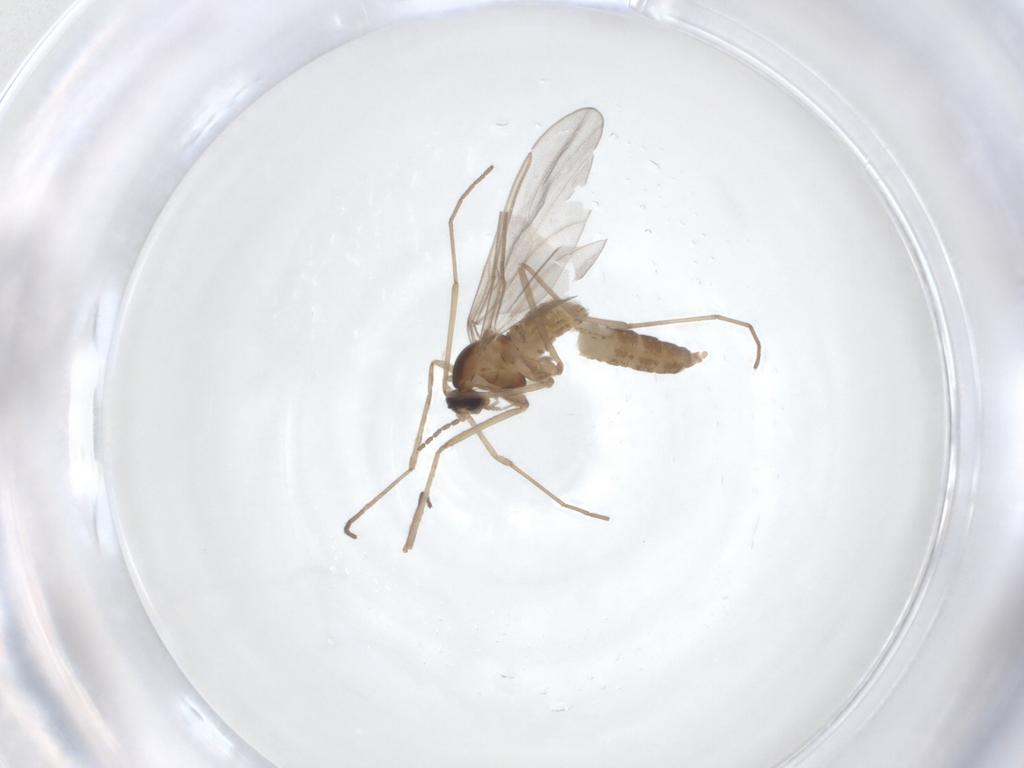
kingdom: Animalia
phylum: Arthropoda
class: Insecta
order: Diptera
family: Cecidomyiidae
